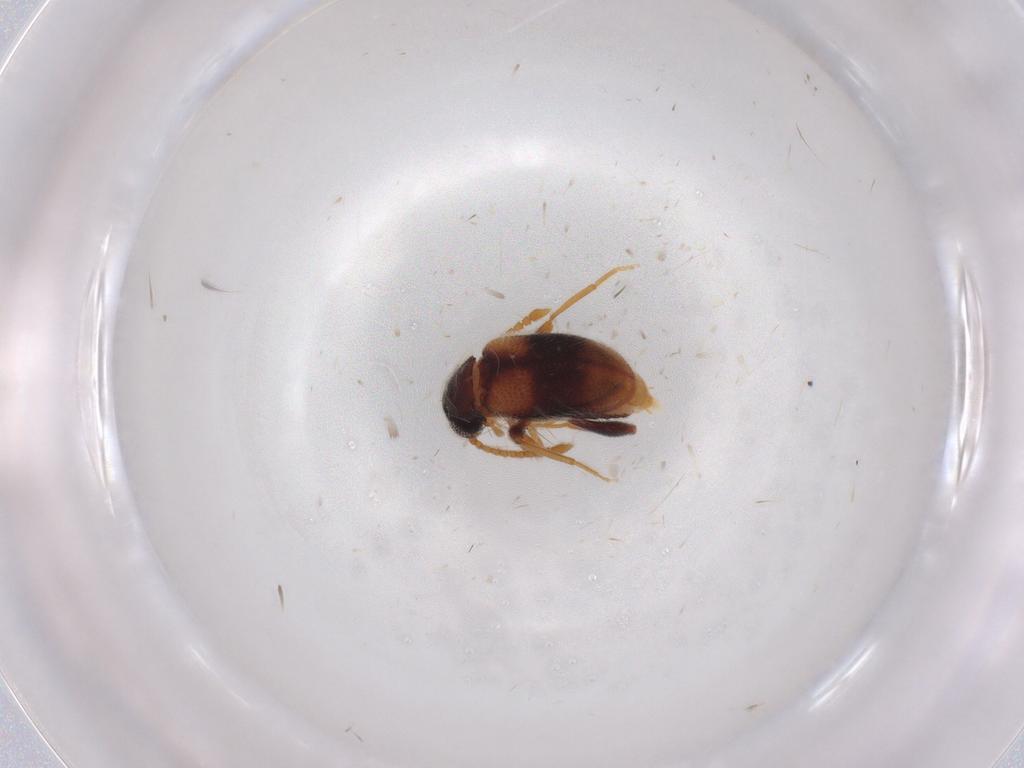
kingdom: Animalia
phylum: Arthropoda
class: Insecta
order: Coleoptera
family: Aderidae
